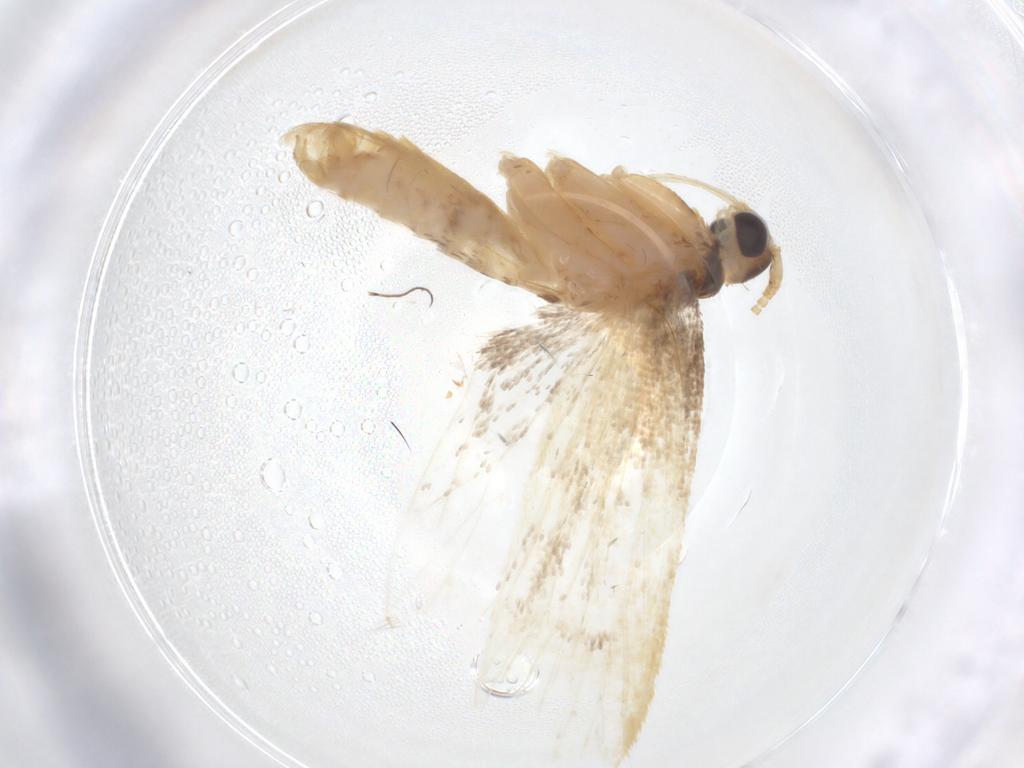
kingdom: Animalia
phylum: Arthropoda
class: Insecta
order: Lepidoptera
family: Lecithoceridae
